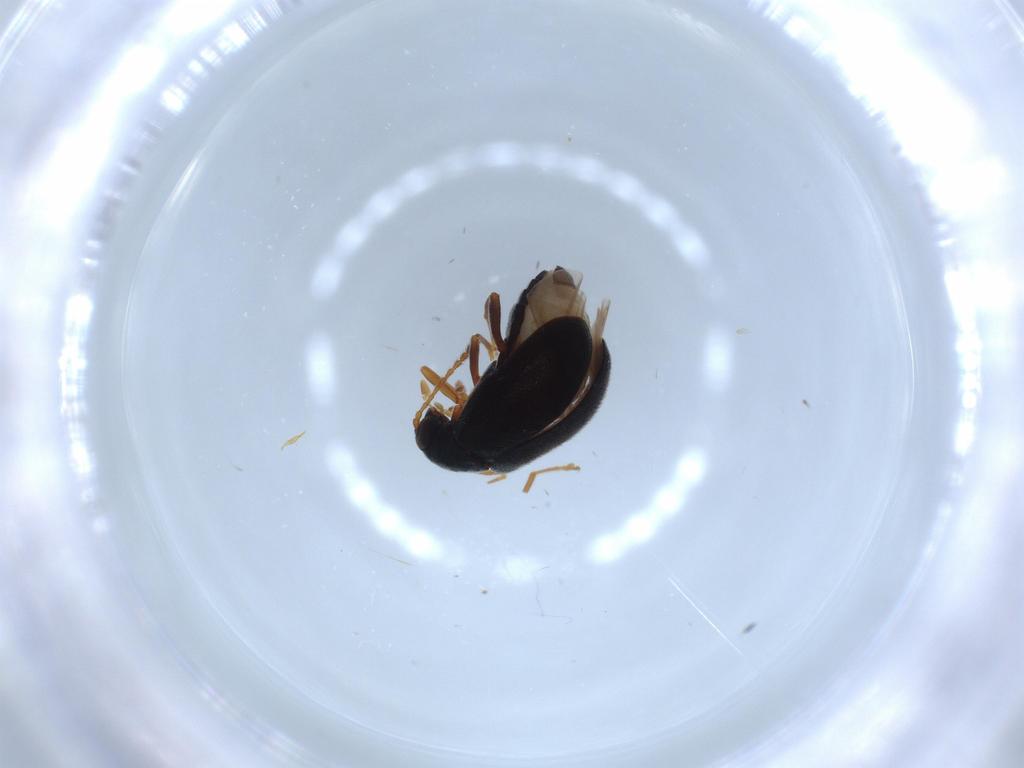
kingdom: Animalia
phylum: Arthropoda
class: Insecta
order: Coleoptera
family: Aderidae
